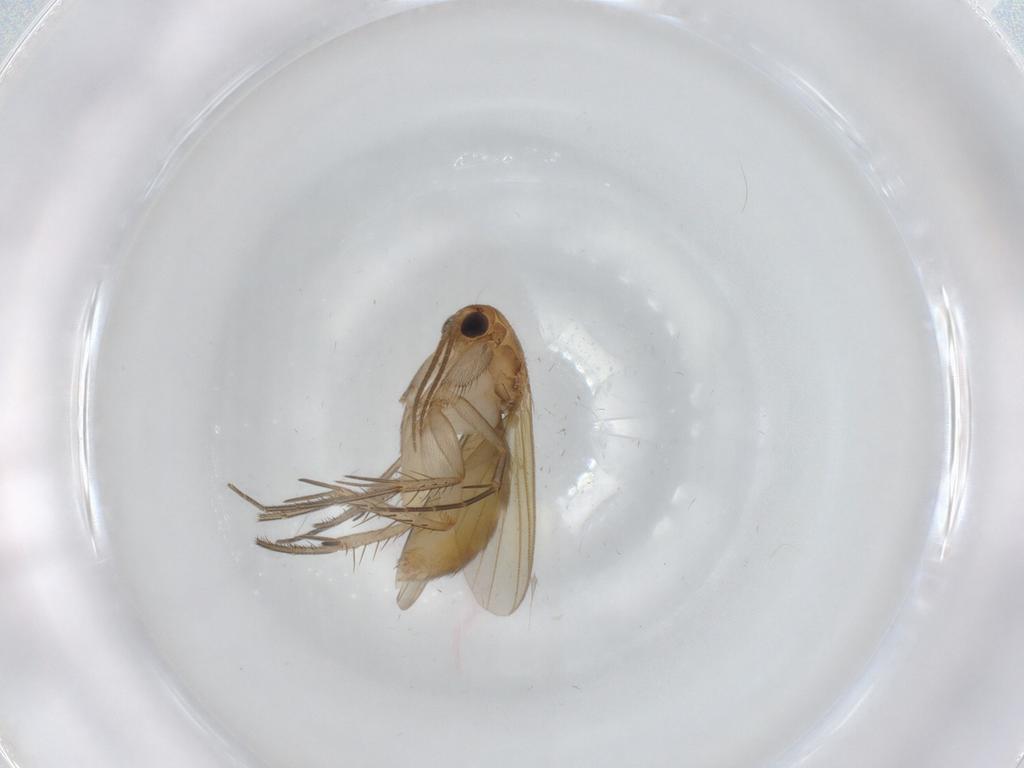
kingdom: Animalia
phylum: Arthropoda
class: Insecta
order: Diptera
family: Mycetophilidae
